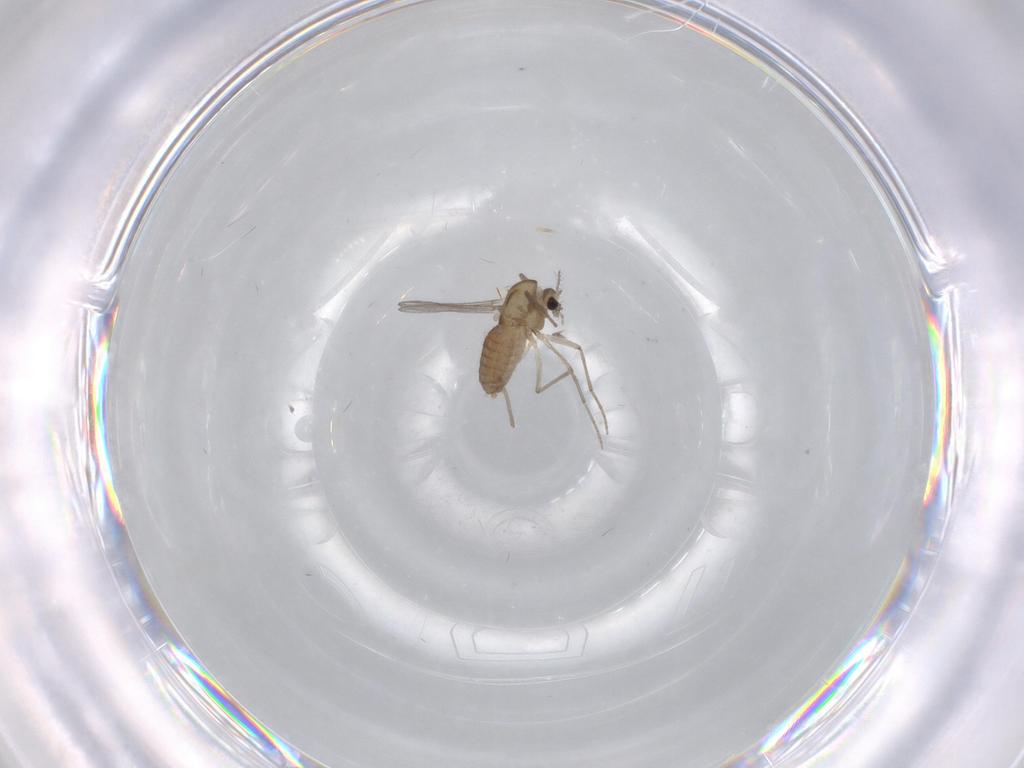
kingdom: Animalia
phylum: Arthropoda
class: Insecta
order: Diptera
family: Chironomidae
